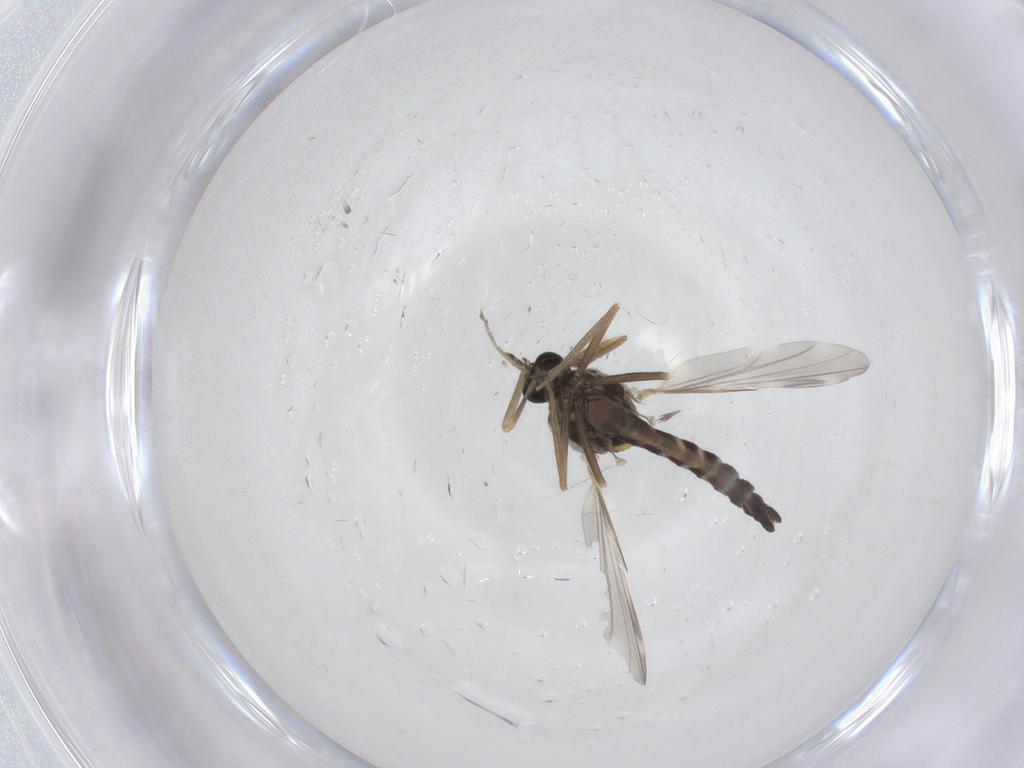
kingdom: Animalia
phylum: Arthropoda
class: Insecta
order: Diptera
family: Ceratopogonidae
